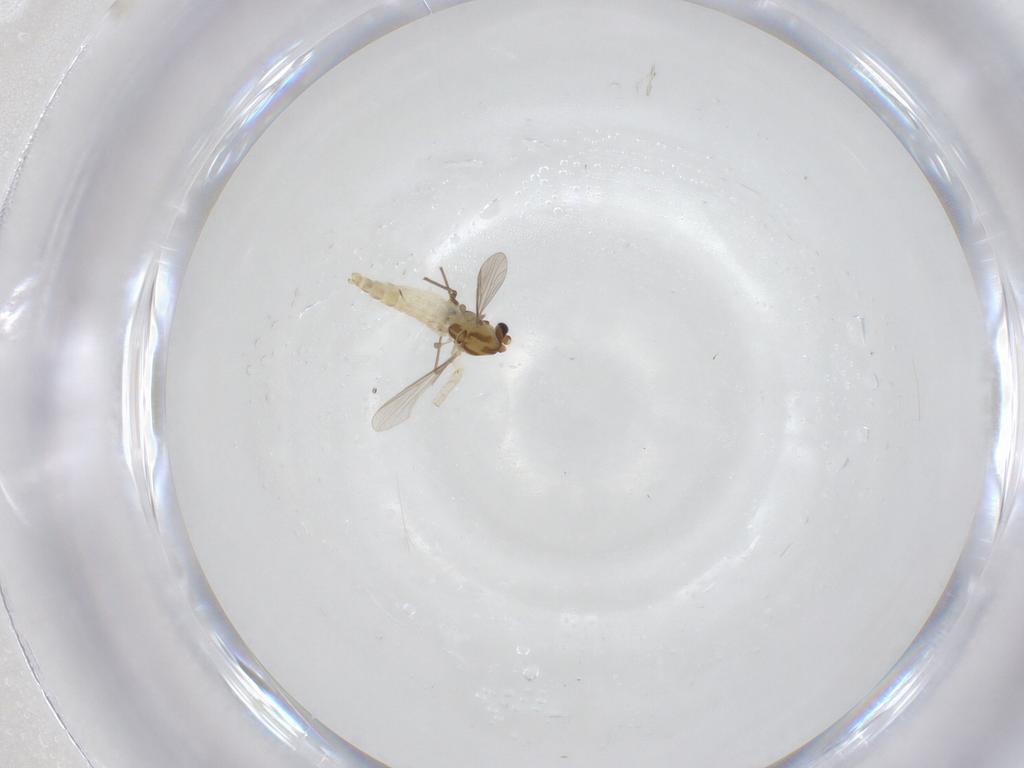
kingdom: Animalia
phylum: Arthropoda
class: Insecta
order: Diptera
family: Chironomidae
